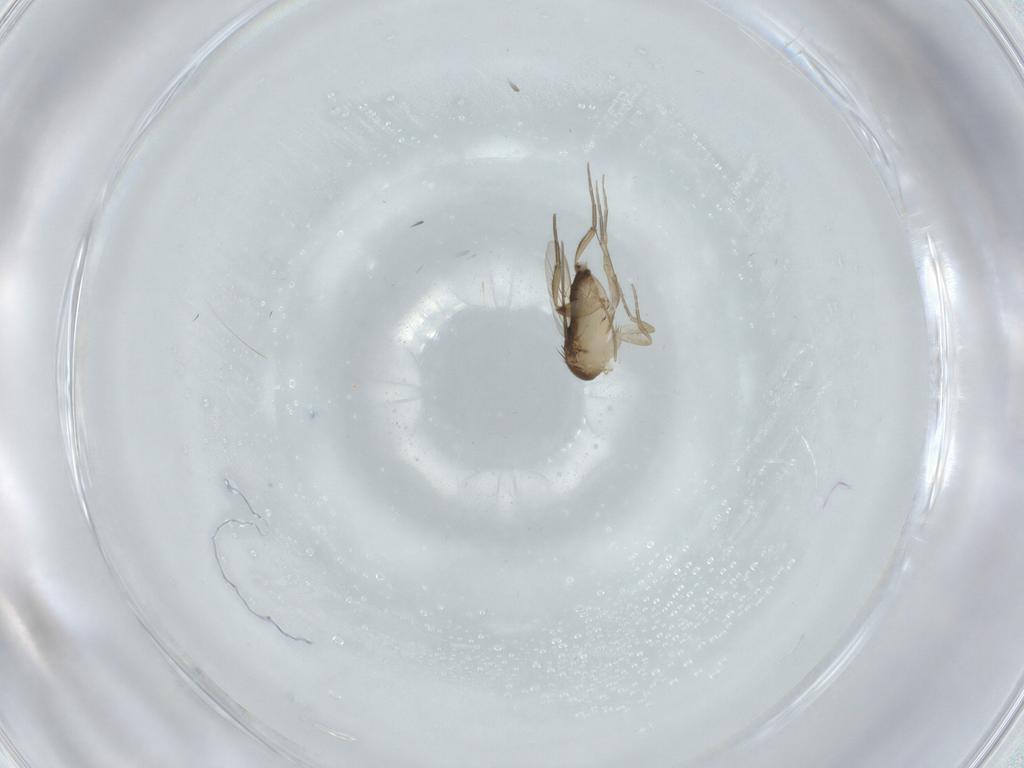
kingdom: Animalia
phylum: Arthropoda
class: Insecta
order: Diptera
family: Phoridae
